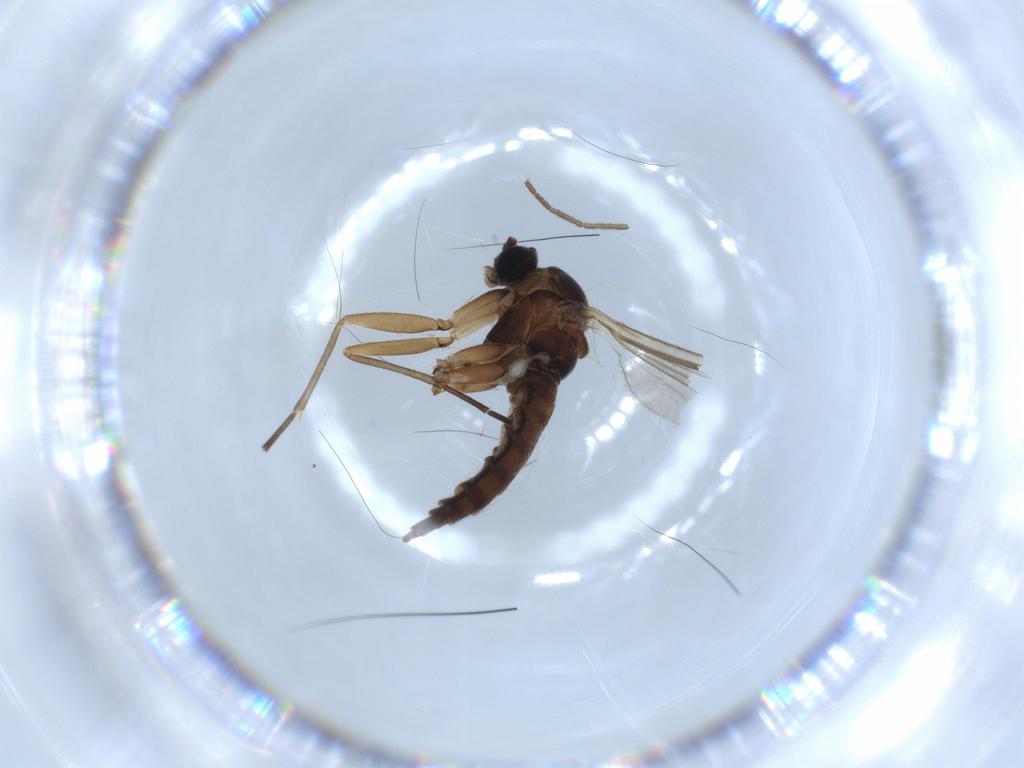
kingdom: Animalia
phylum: Arthropoda
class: Insecta
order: Diptera
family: Sciaridae
